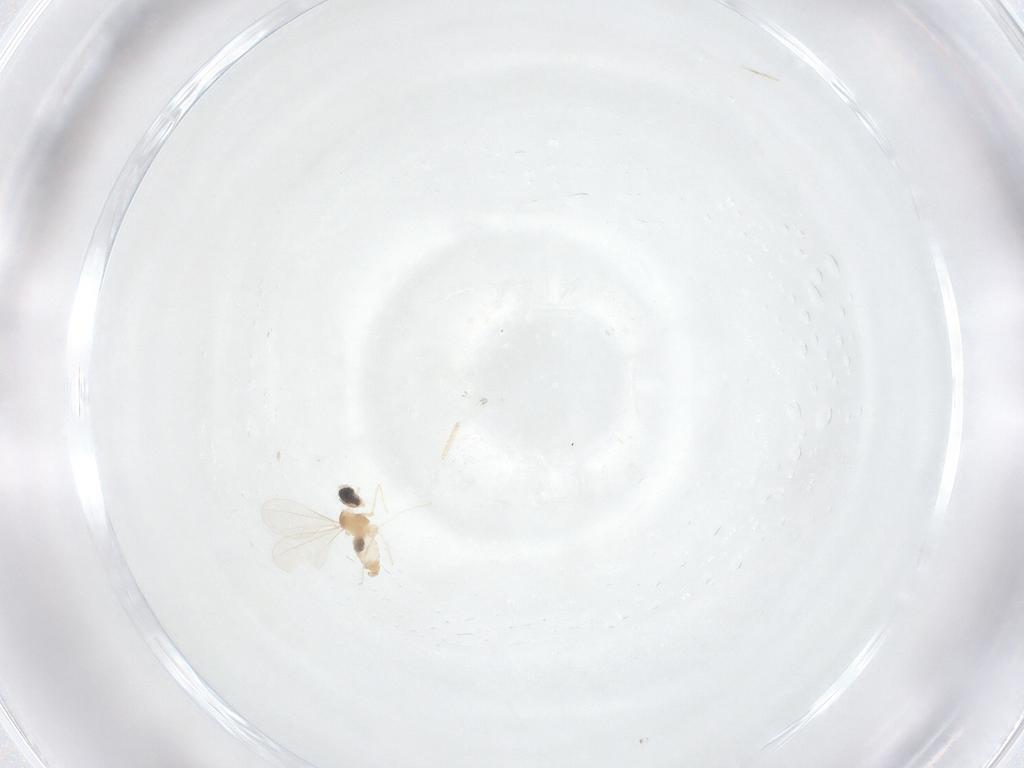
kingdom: Animalia
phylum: Arthropoda
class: Insecta
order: Diptera
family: Cecidomyiidae
